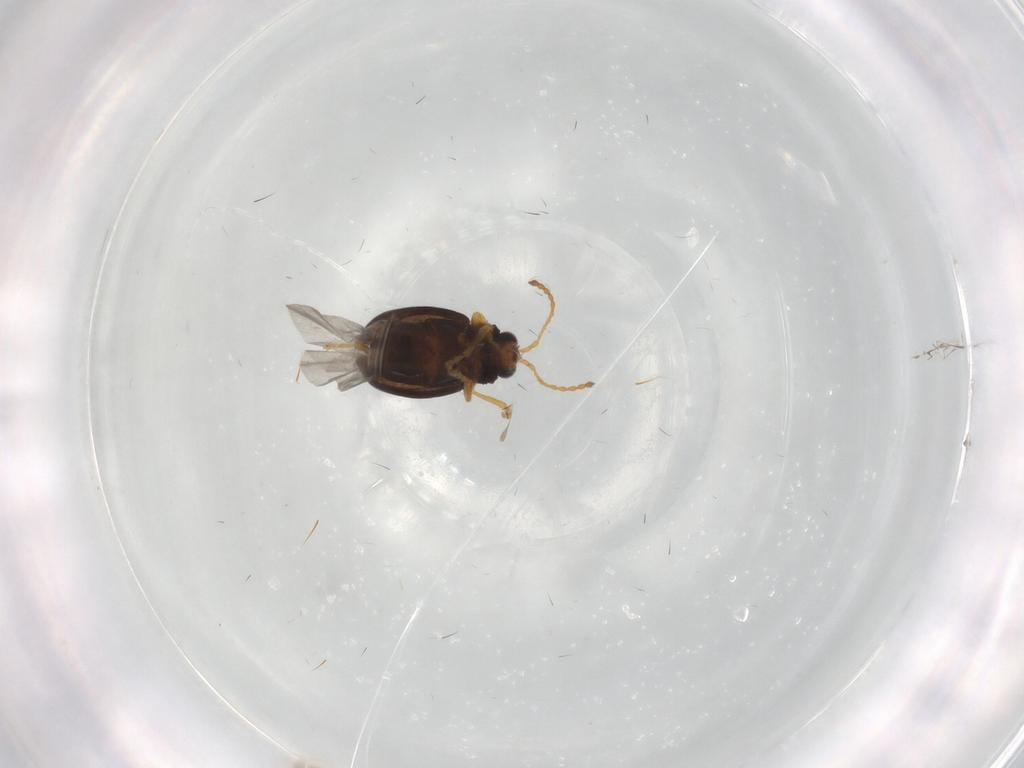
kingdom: Animalia
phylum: Arthropoda
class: Insecta
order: Coleoptera
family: Chrysomelidae
